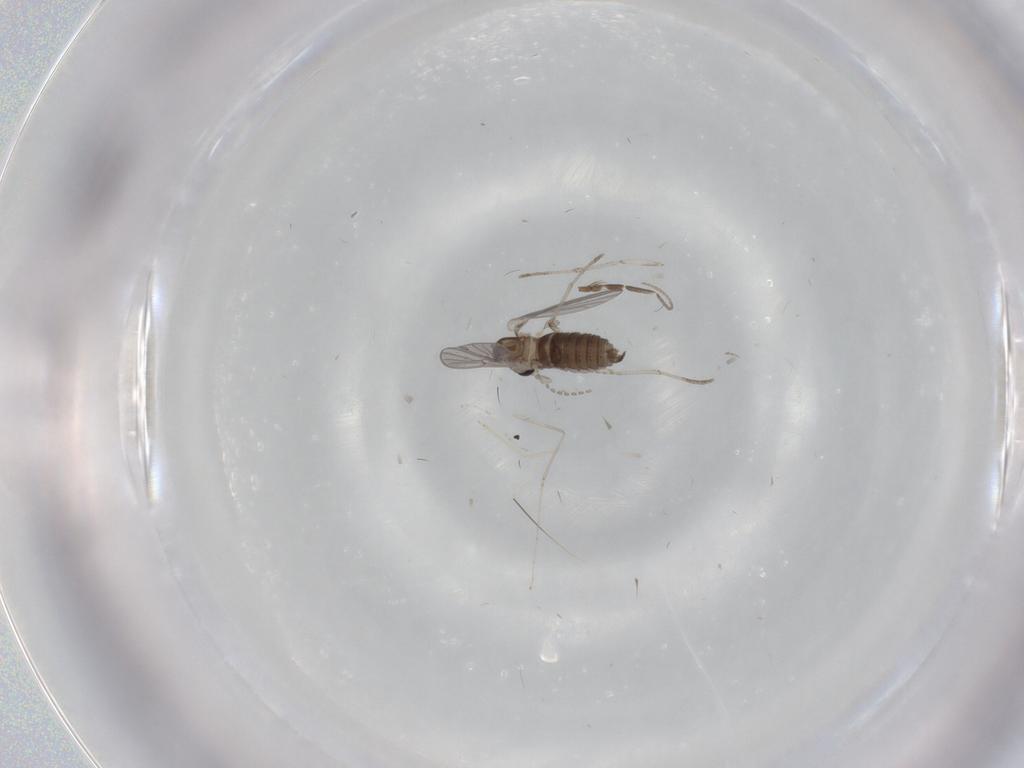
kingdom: Animalia
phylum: Arthropoda
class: Insecta
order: Diptera
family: Cecidomyiidae
